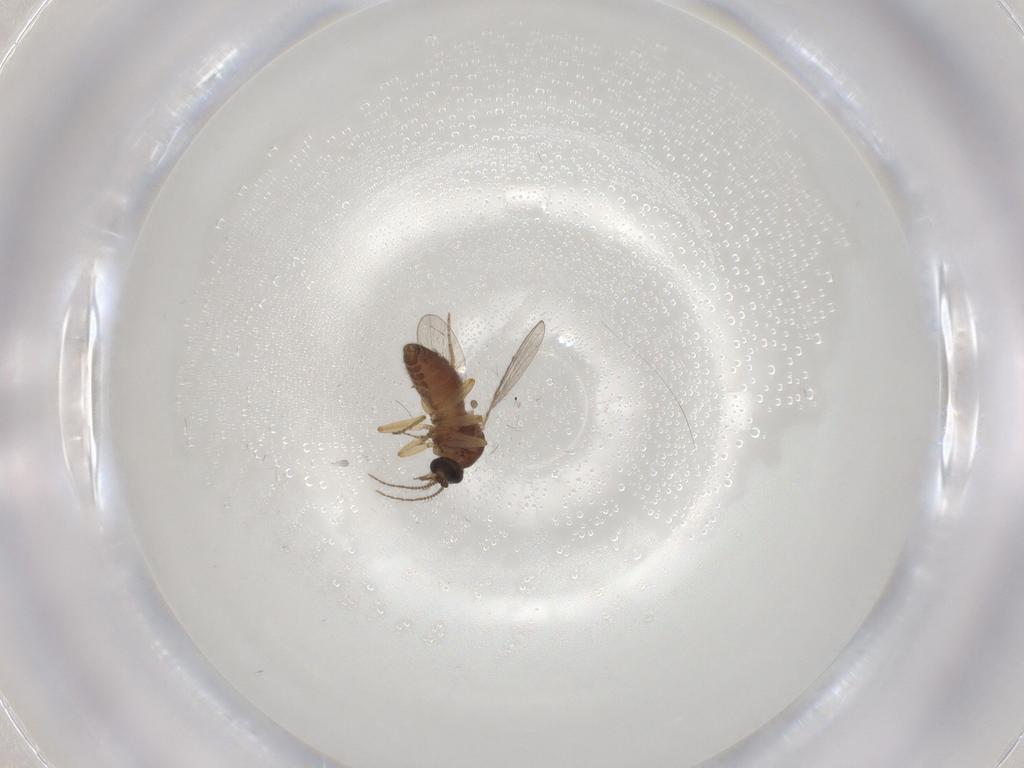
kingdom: Animalia
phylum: Arthropoda
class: Insecta
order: Diptera
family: Ceratopogonidae
